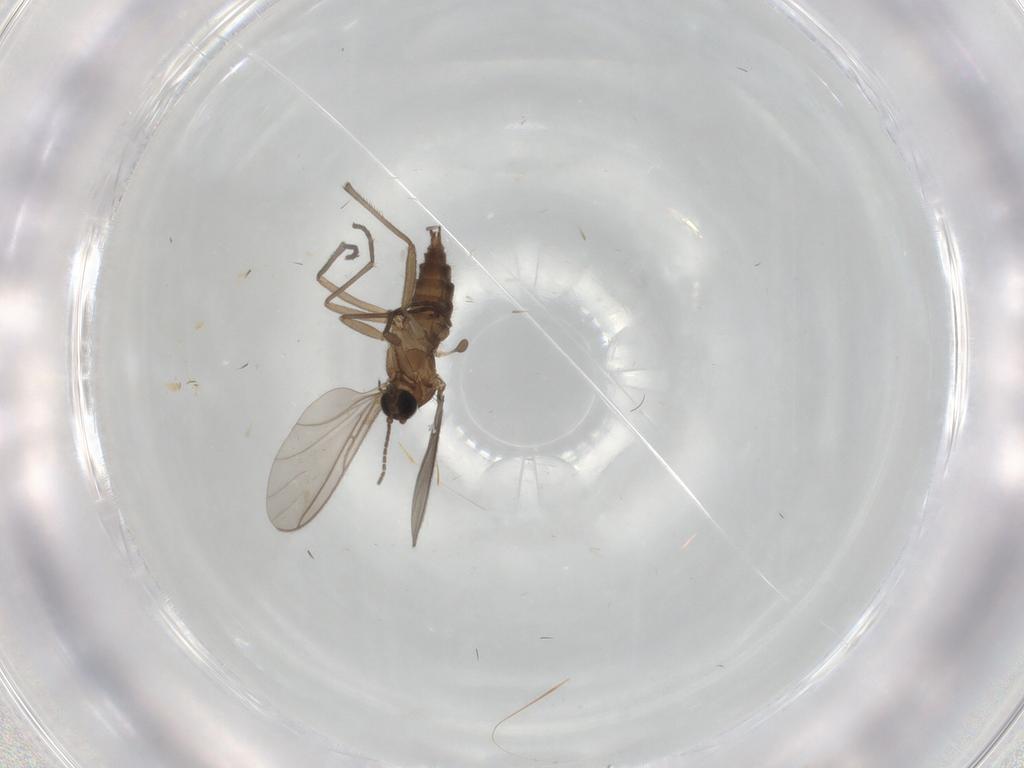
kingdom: Animalia
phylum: Arthropoda
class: Insecta
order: Diptera
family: Sciaridae
